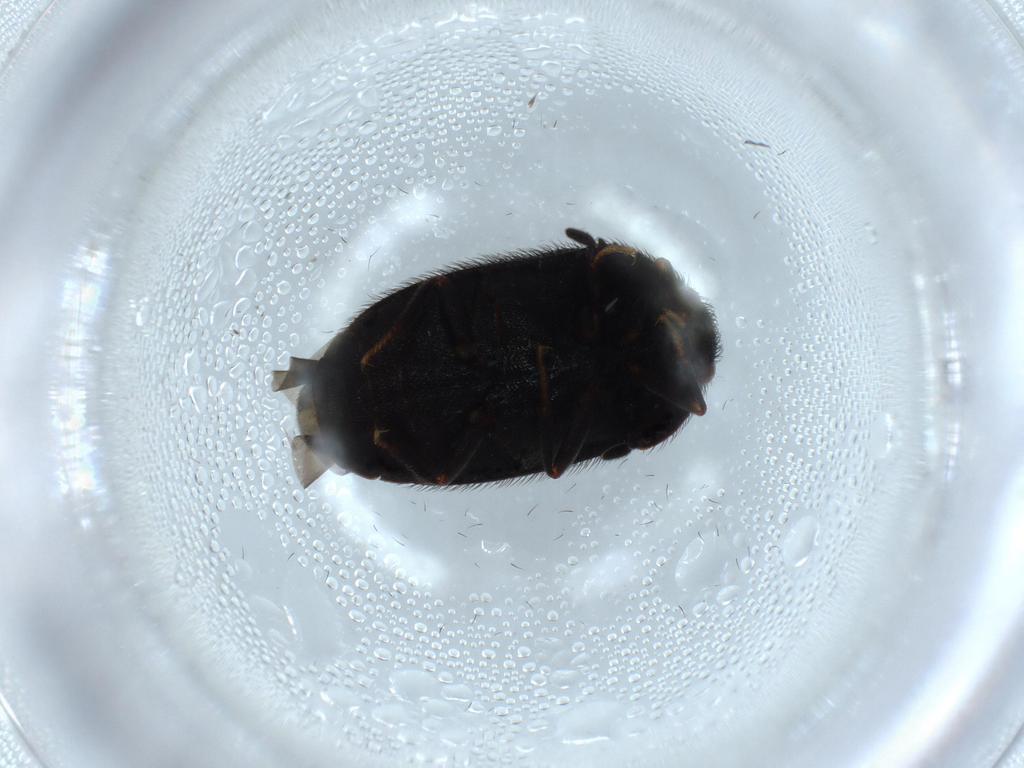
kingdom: Animalia
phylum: Arthropoda
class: Insecta
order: Coleoptera
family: Dermestidae
